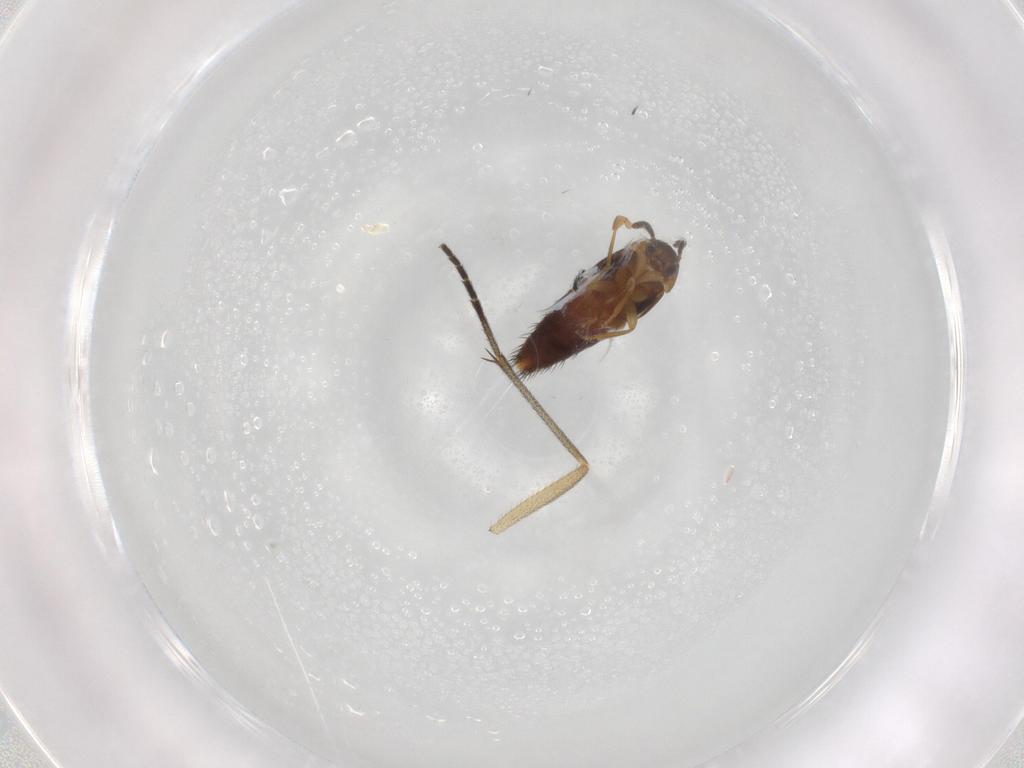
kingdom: Animalia
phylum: Arthropoda
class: Insecta
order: Coleoptera
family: Staphylinidae
